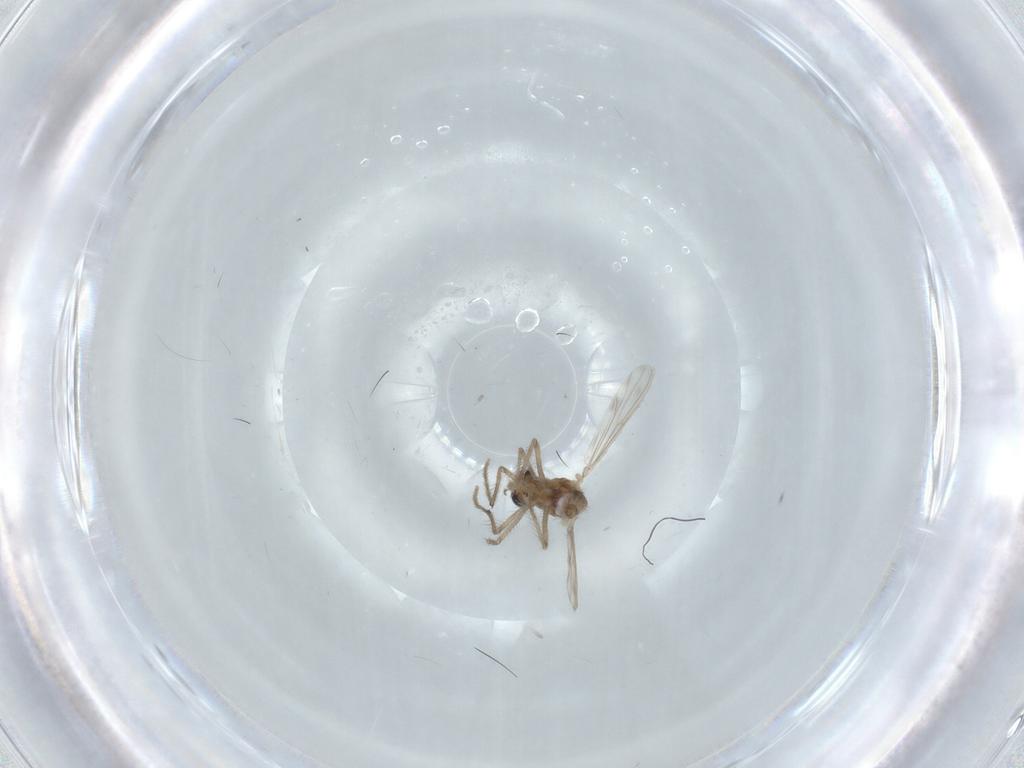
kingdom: Animalia
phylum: Arthropoda
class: Insecta
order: Diptera
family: Chironomidae
